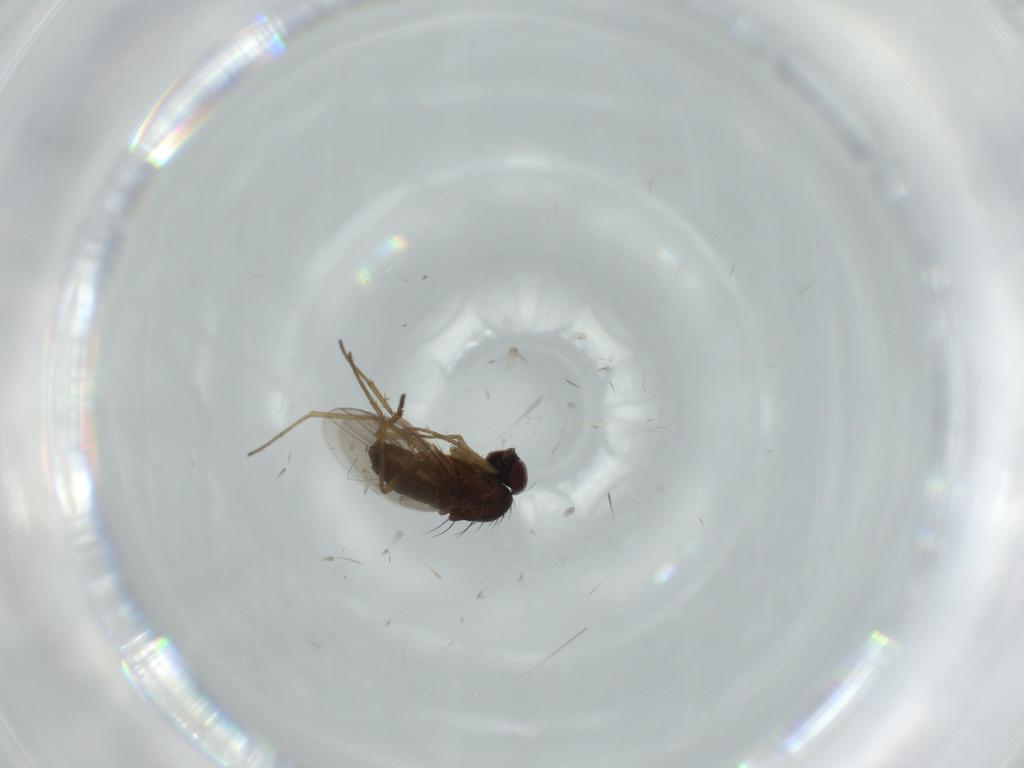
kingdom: Animalia
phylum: Arthropoda
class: Insecta
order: Diptera
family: Dolichopodidae
